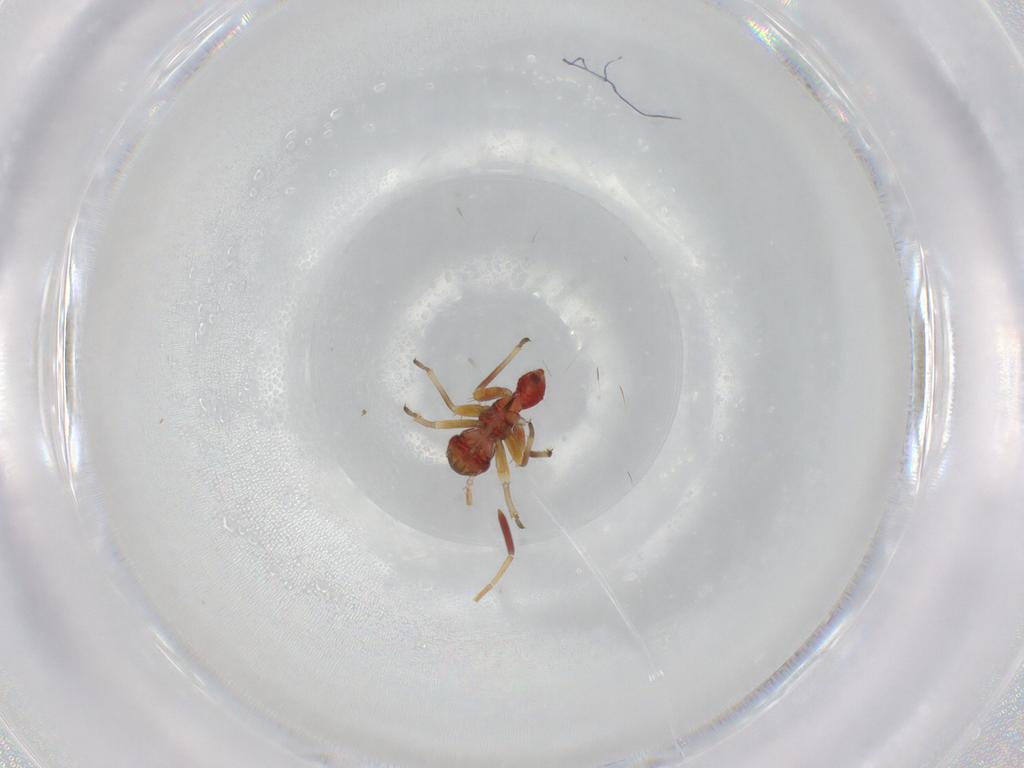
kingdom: Animalia
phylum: Arthropoda
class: Insecta
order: Hemiptera
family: Miridae
